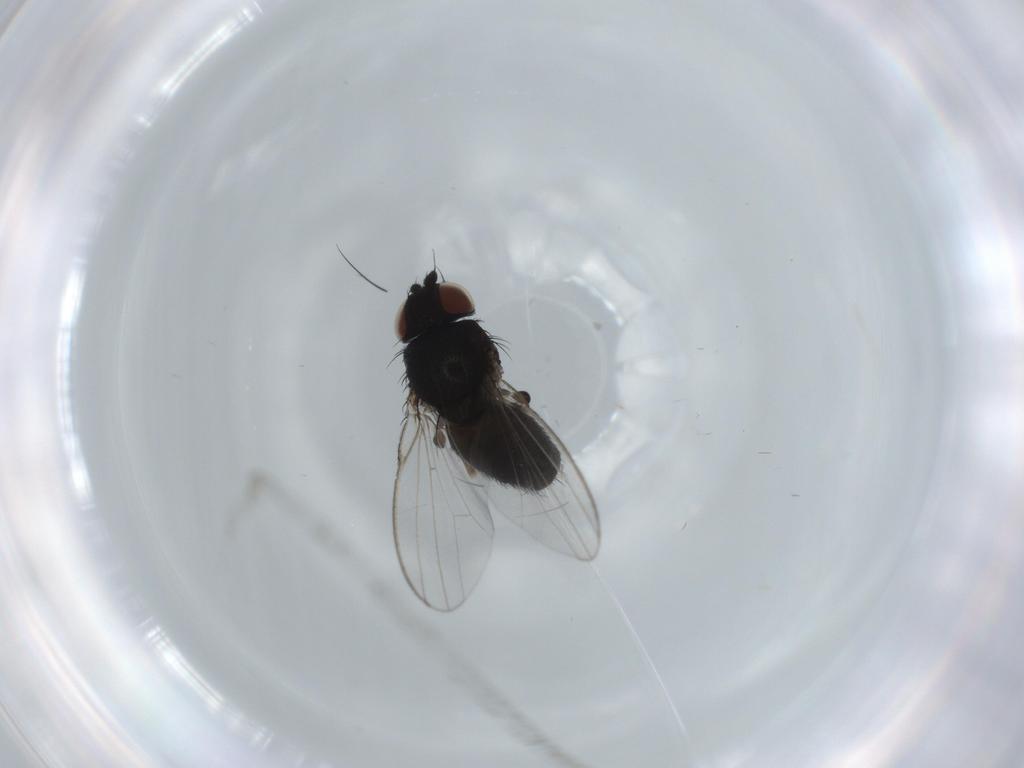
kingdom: Animalia
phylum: Arthropoda
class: Insecta
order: Diptera
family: Milichiidae
